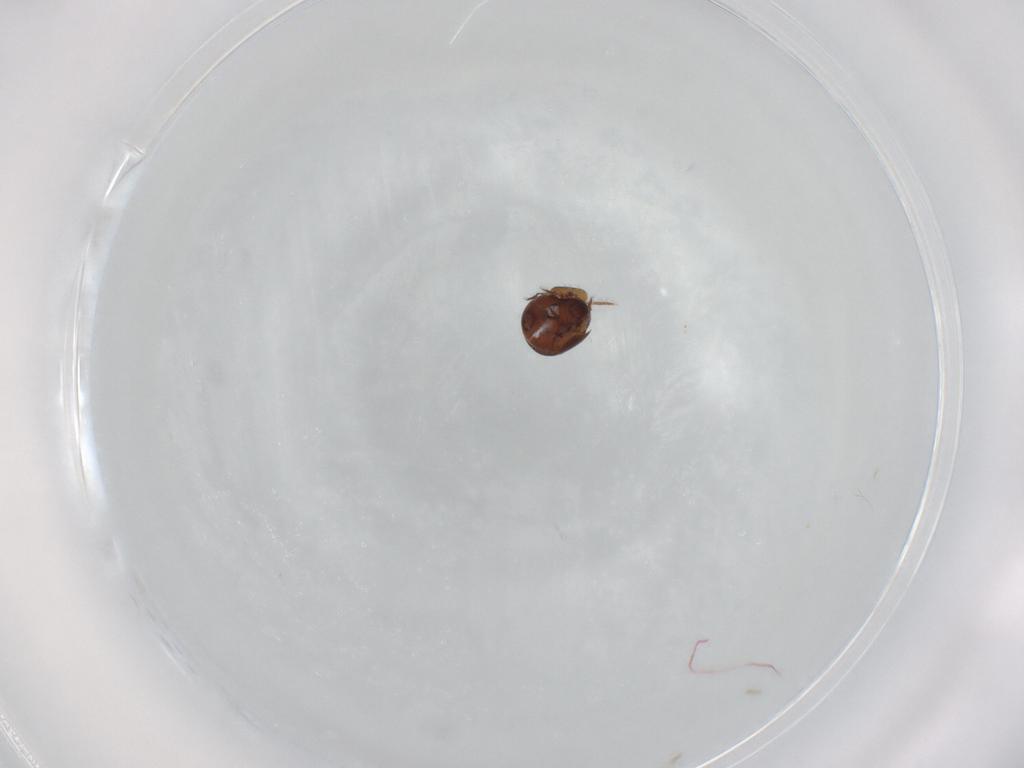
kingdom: Animalia
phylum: Arthropoda
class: Arachnida
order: Sarcoptiformes
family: Ceratozetidae
